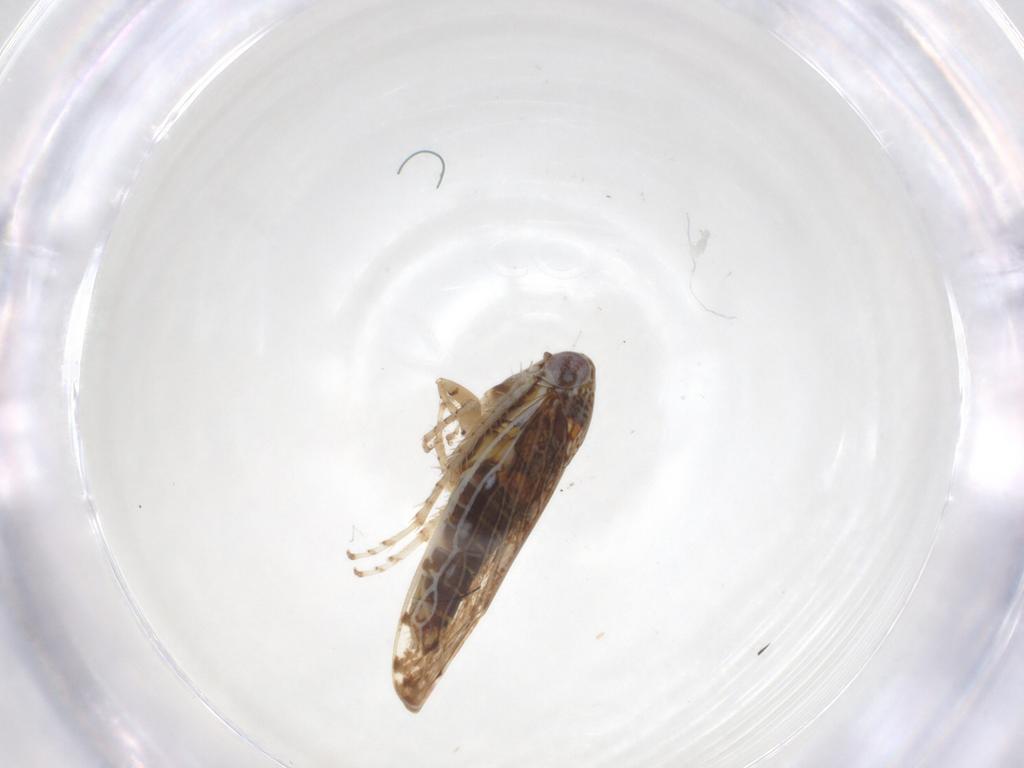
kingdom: Animalia
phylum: Arthropoda
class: Insecta
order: Hemiptera
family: Cicadellidae
